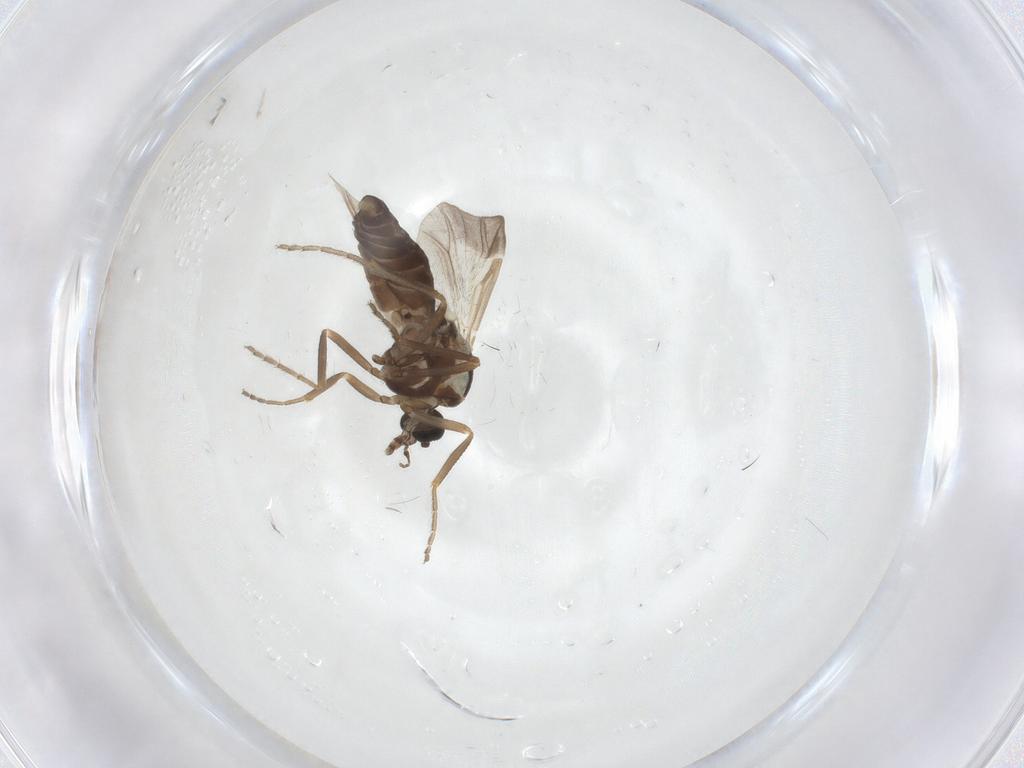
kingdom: Animalia
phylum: Arthropoda
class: Insecta
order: Diptera
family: Ceratopogonidae
